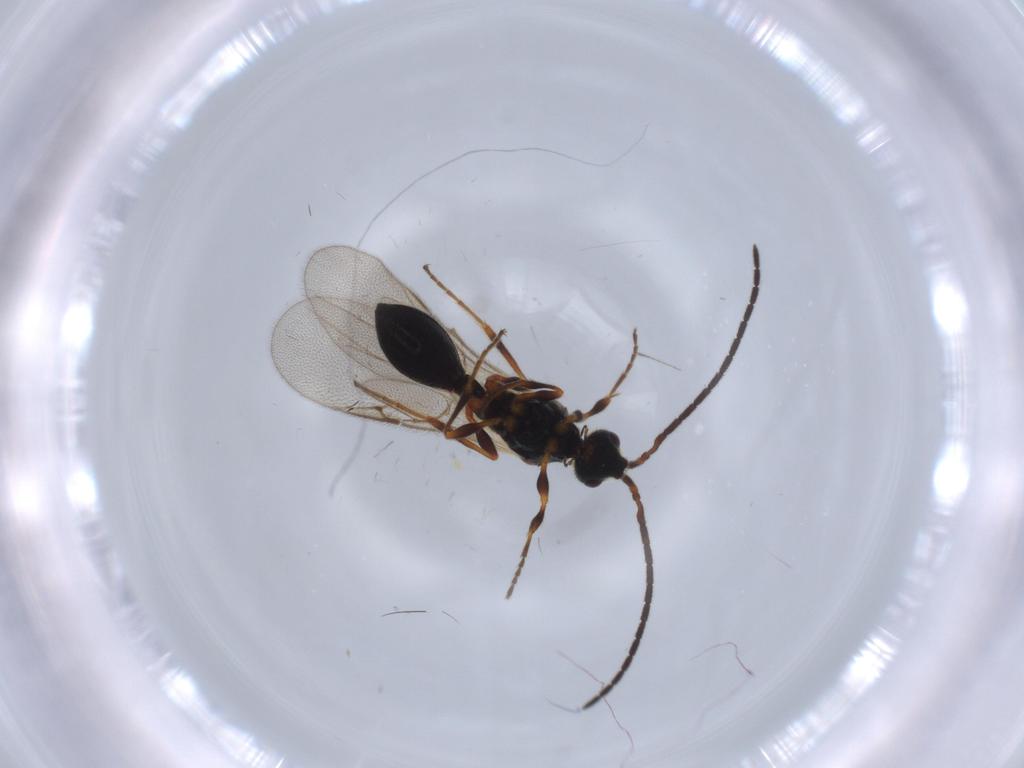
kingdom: Animalia
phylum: Arthropoda
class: Insecta
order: Hymenoptera
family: Diapriidae
